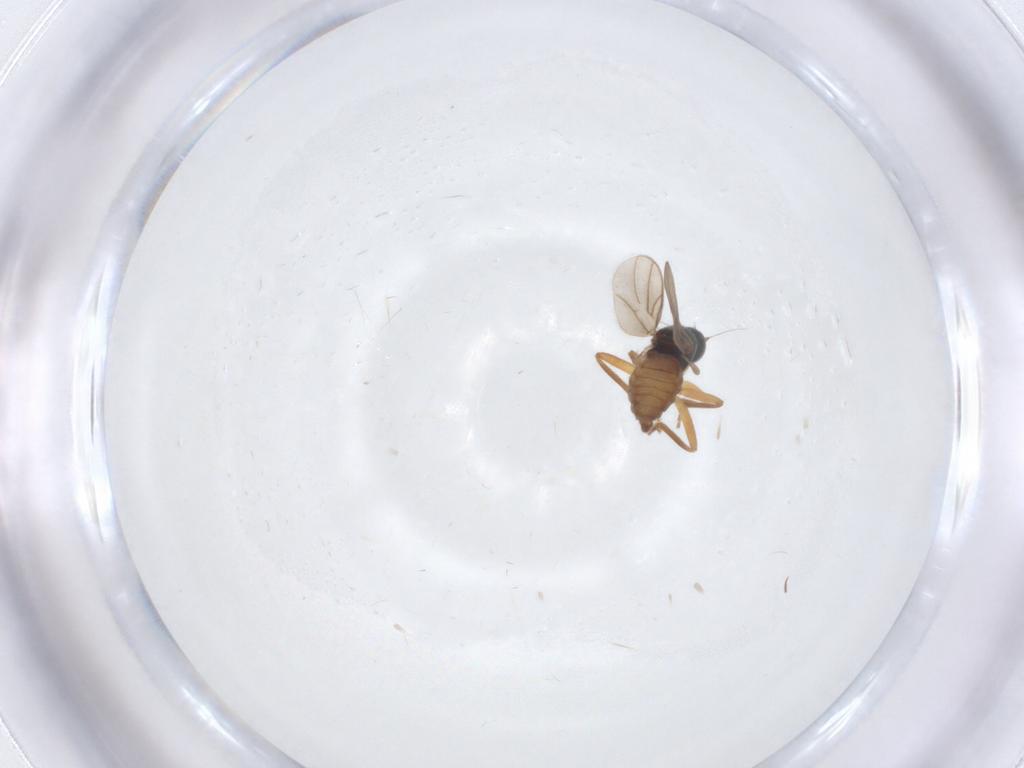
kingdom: Animalia
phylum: Arthropoda
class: Insecta
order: Diptera
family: Hybotidae
